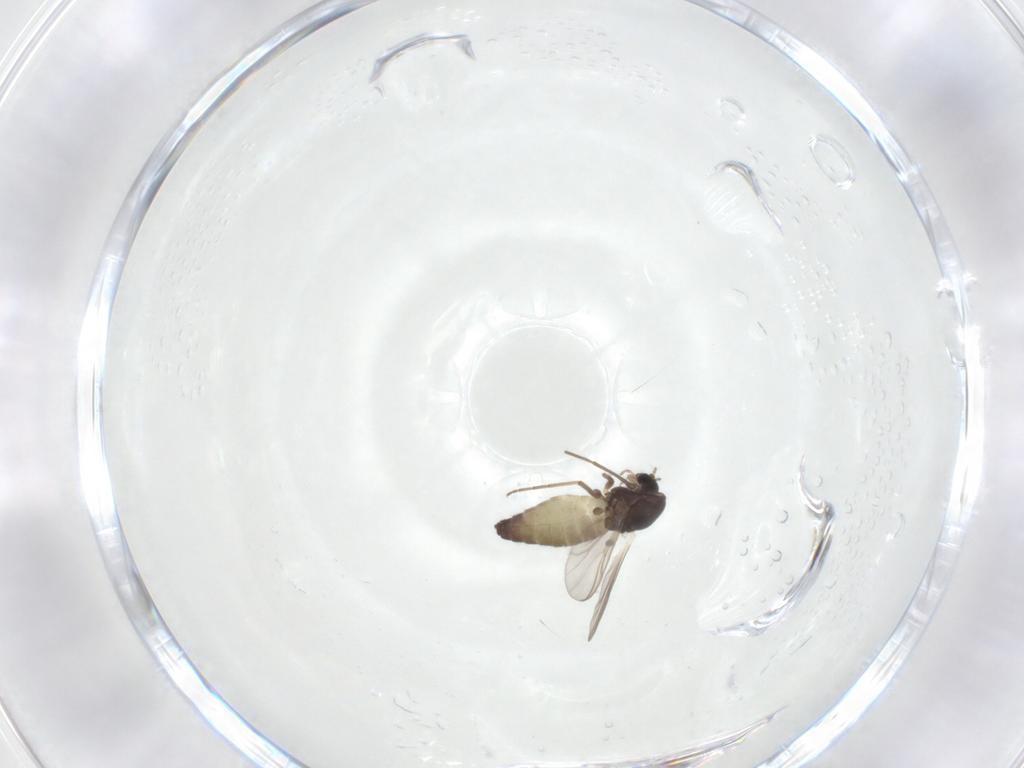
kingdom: Animalia
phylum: Arthropoda
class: Insecta
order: Diptera
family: Chironomidae
